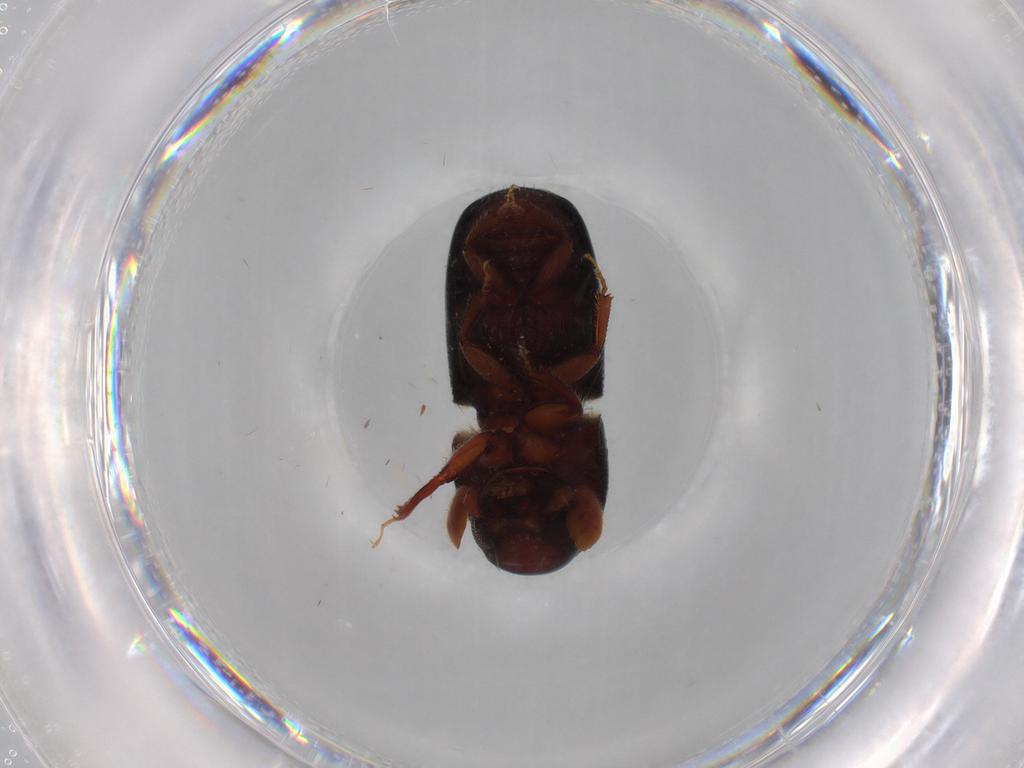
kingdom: Animalia
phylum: Arthropoda
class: Insecta
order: Coleoptera
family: Curculionidae
